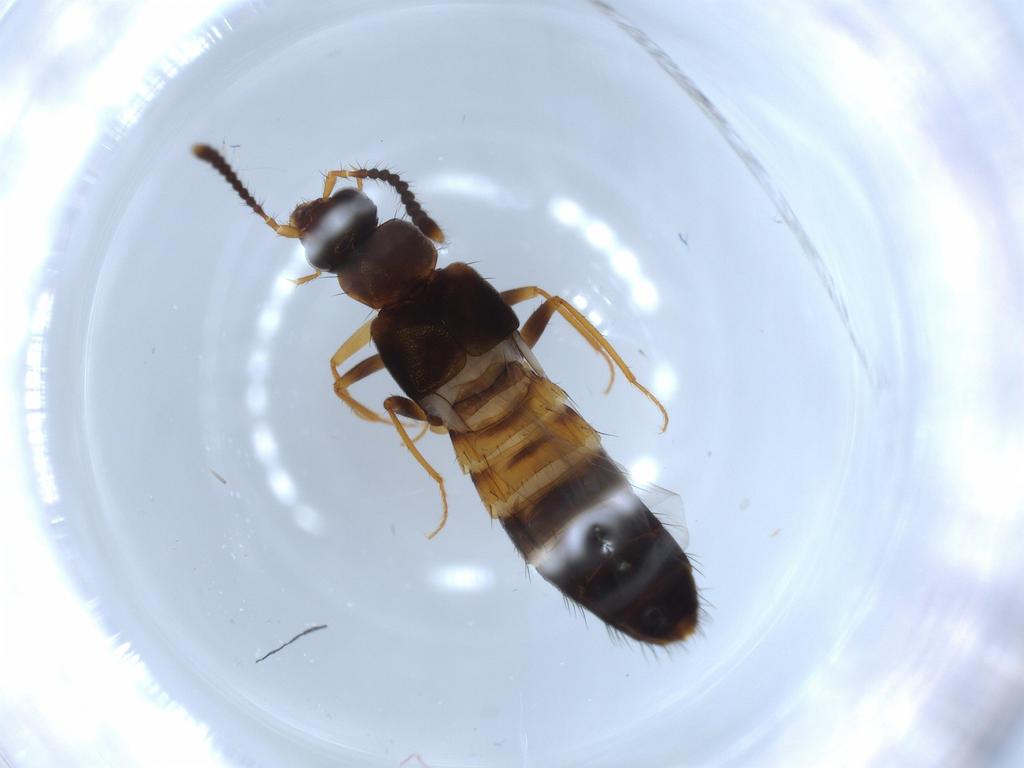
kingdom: Animalia
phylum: Arthropoda
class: Insecta
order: Coleoptera
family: Staphylinidae
